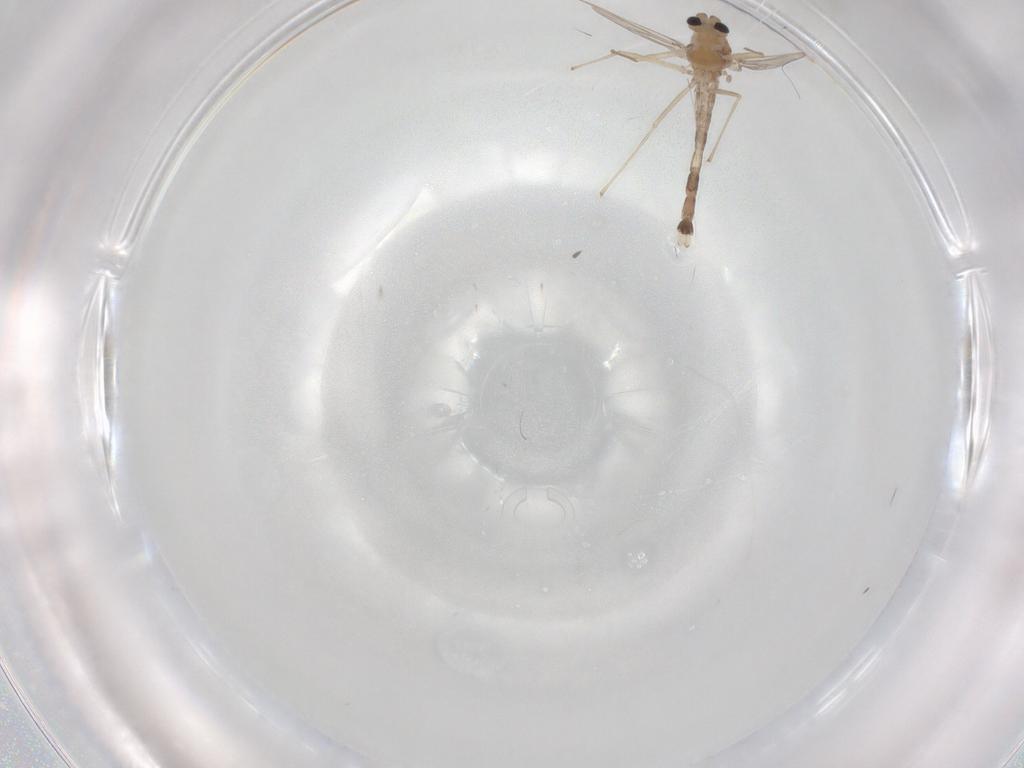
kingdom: Animalia
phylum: Arthropoda
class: Insecta
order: Diptera
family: Chironomidae
